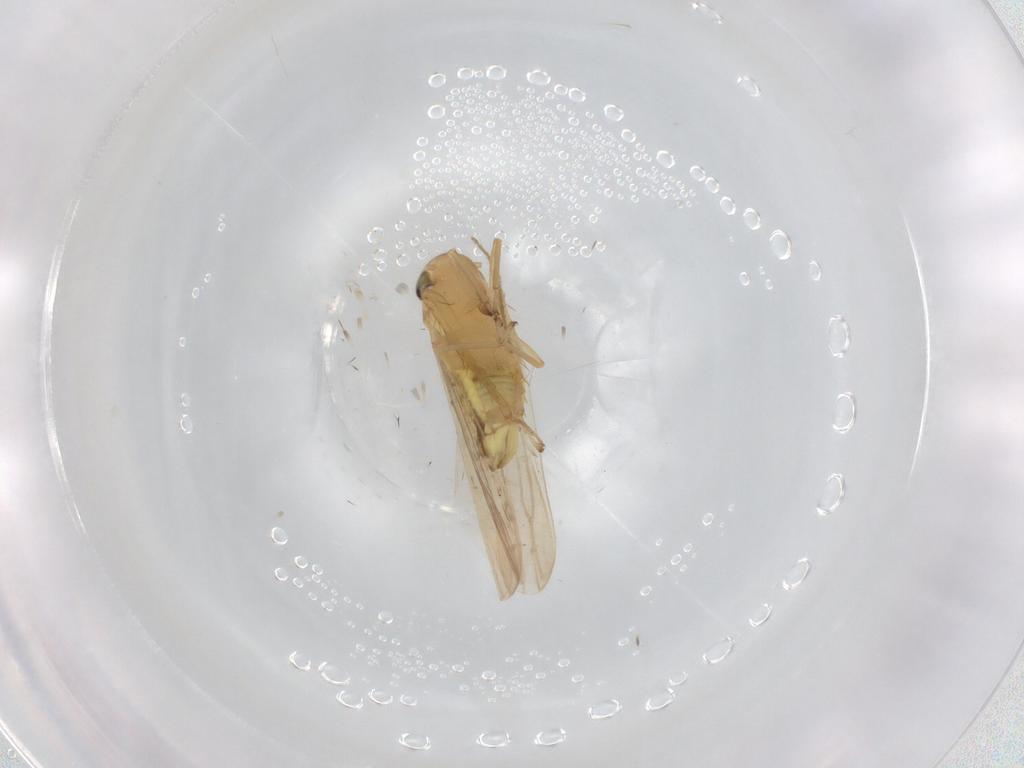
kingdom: Animalia
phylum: Arthropoda
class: Insecta
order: Hemiptera
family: Cicadellidae
